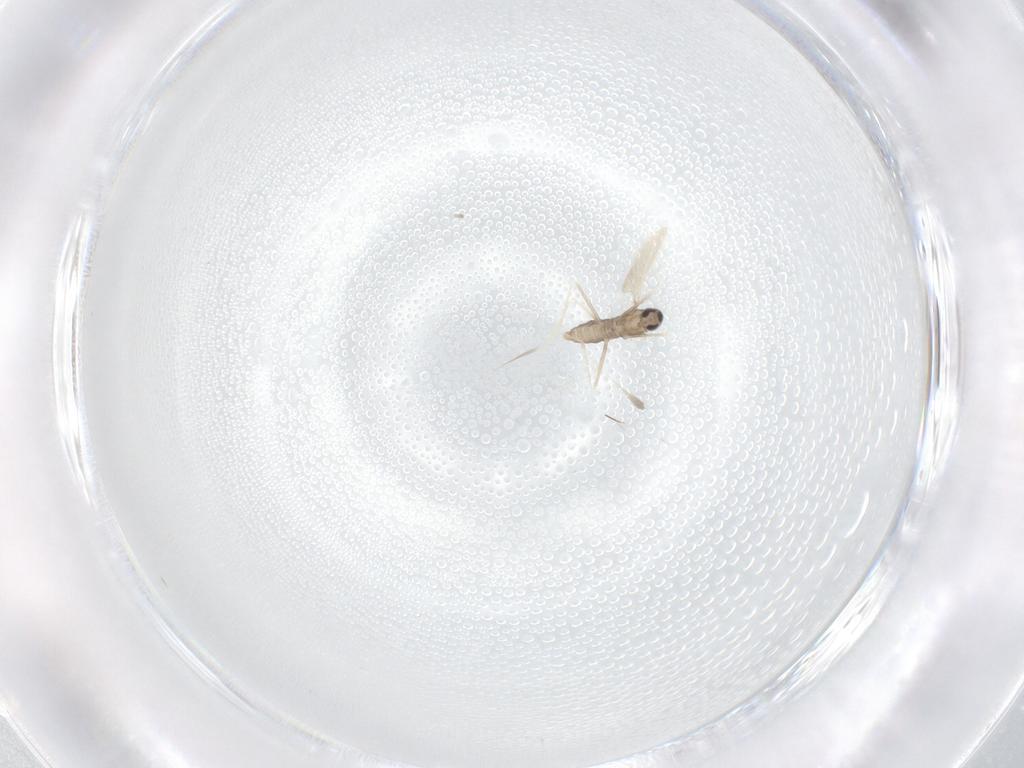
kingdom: Animalia
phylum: Arthropoda
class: Insecta
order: Diptera
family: Cecidomyiidae
